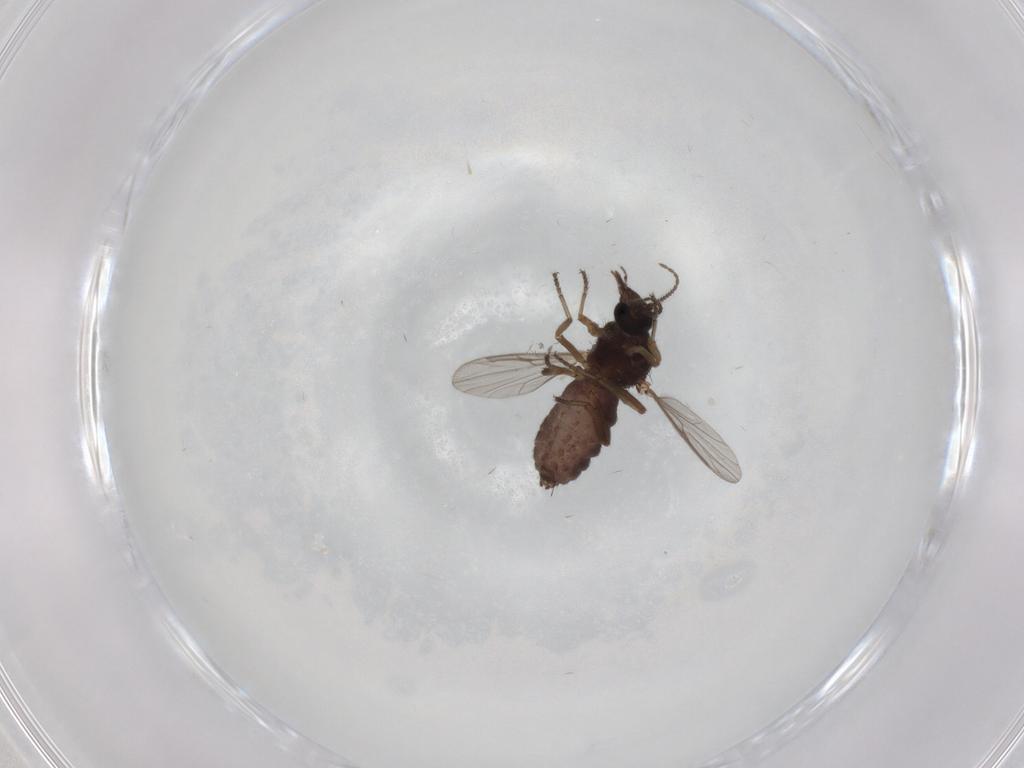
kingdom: Animalia
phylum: Arthropoda
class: Insecta
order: Diptera
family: Ceratopogonidae
